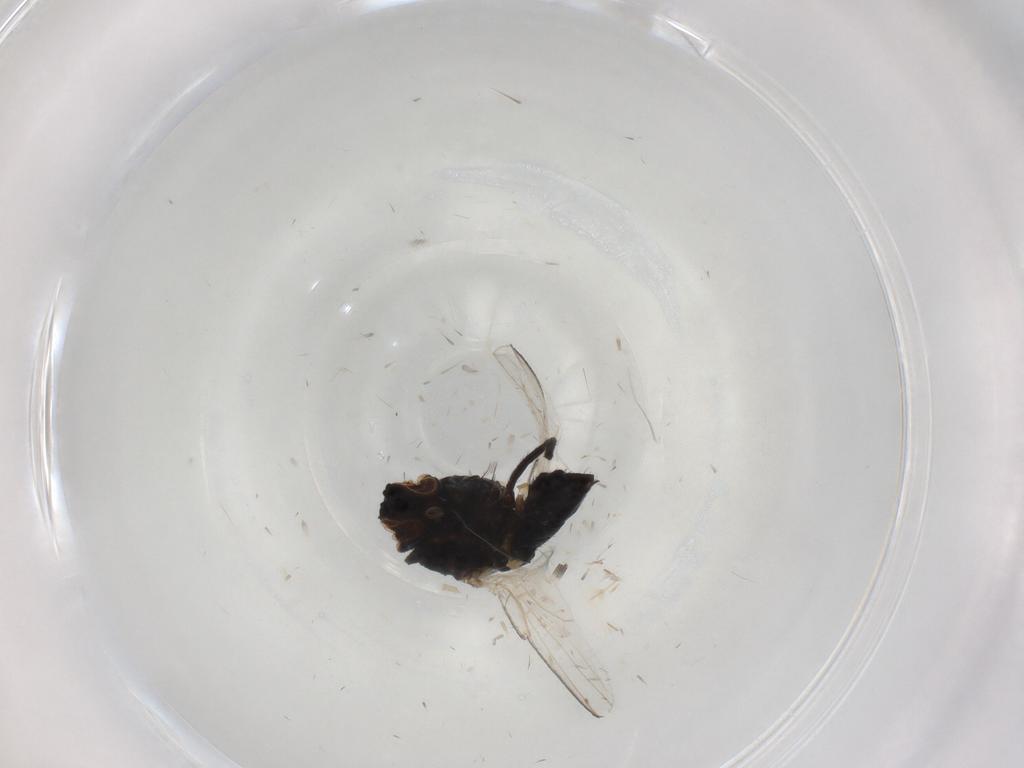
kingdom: Animalia
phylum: Arthropoda
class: Insecta
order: Diptera
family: Milichiidae
